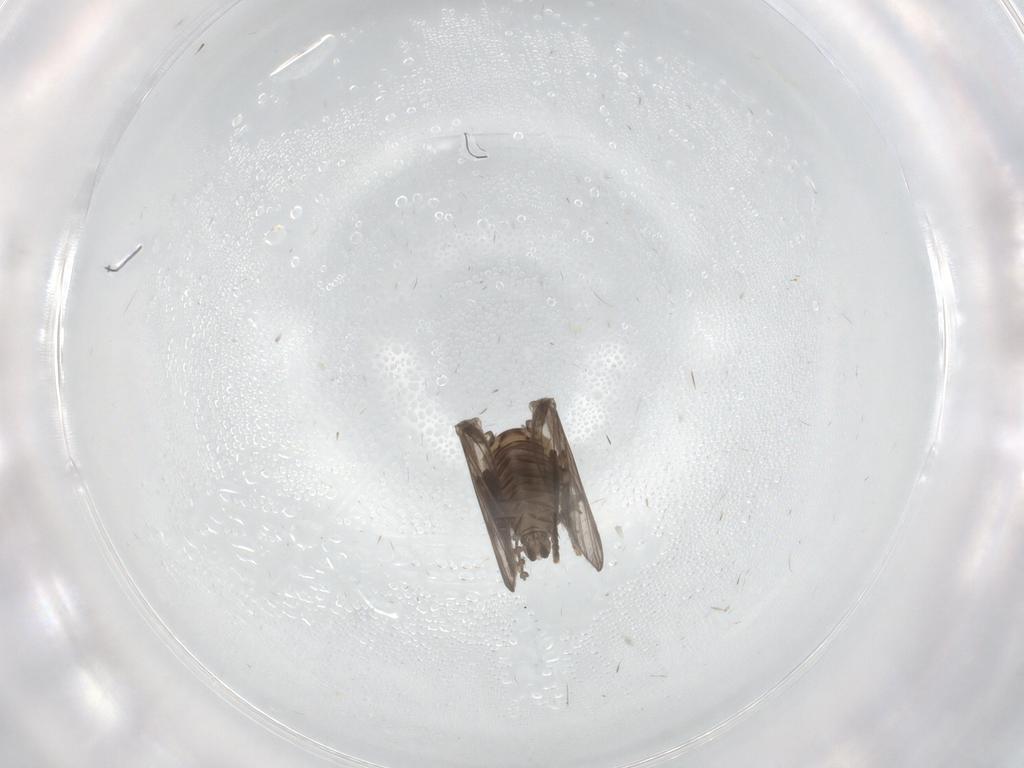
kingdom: Animalia
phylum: Arthropoda
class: Insecta
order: Diptera
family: Psychodidae
